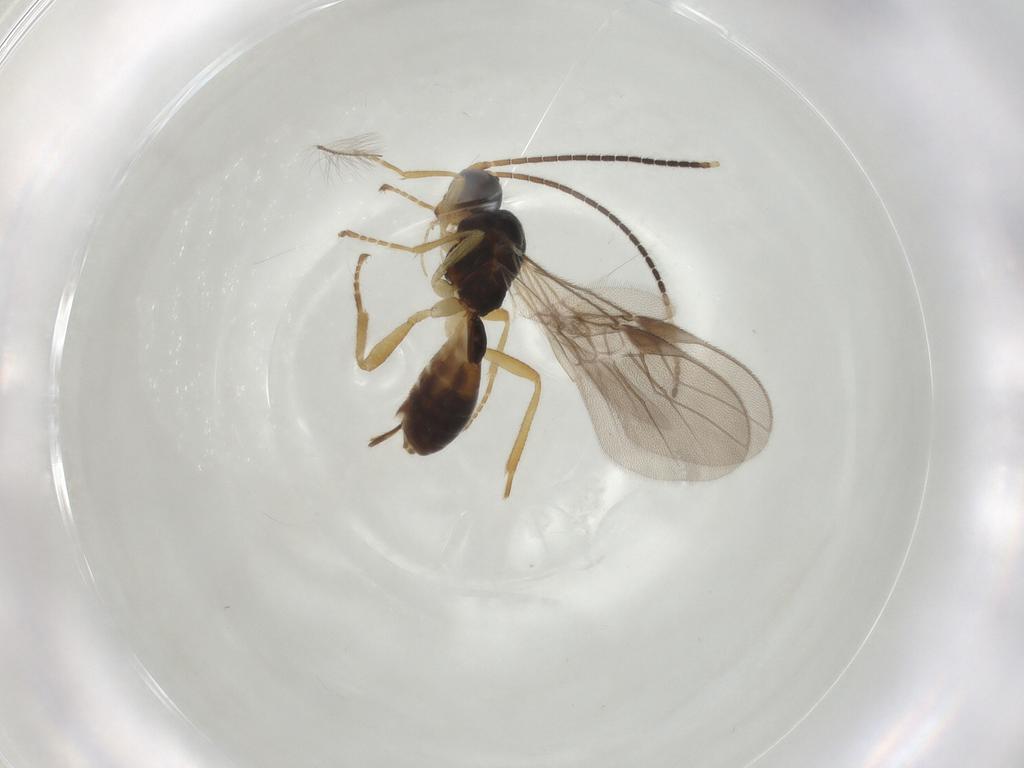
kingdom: Animalia
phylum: Arthropoda
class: Insecta
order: Hymenoptera
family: Braconidae
